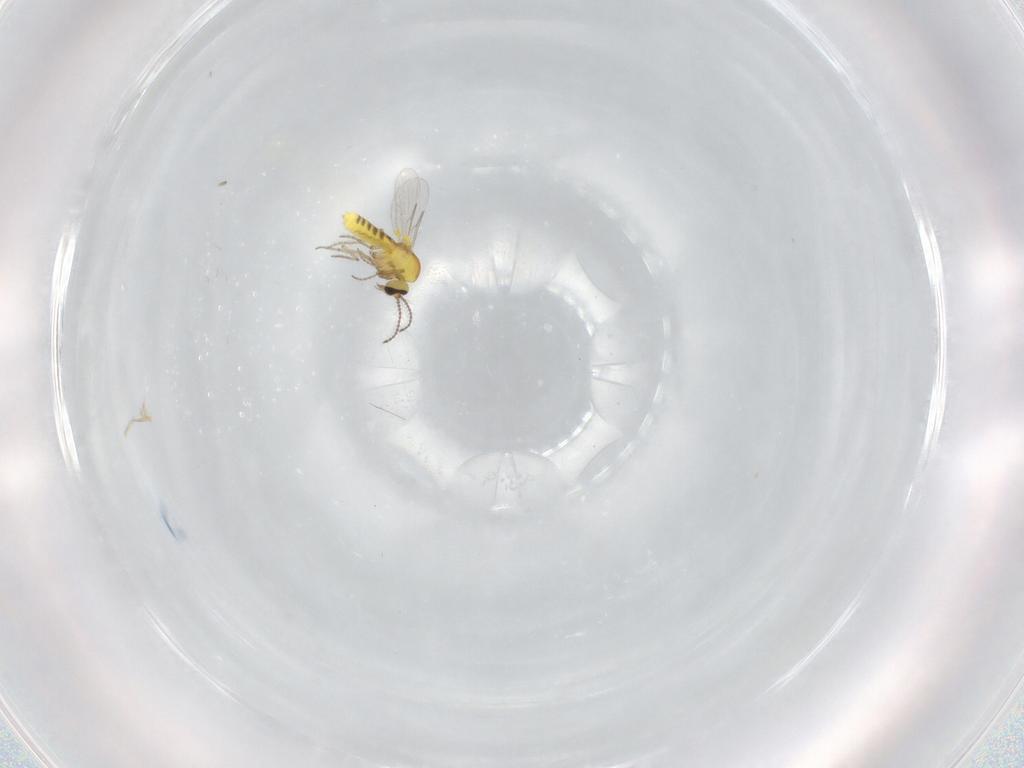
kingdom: Animalia
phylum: Arthropoda
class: Insecta
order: Diptera
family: Ceratopogonidae
